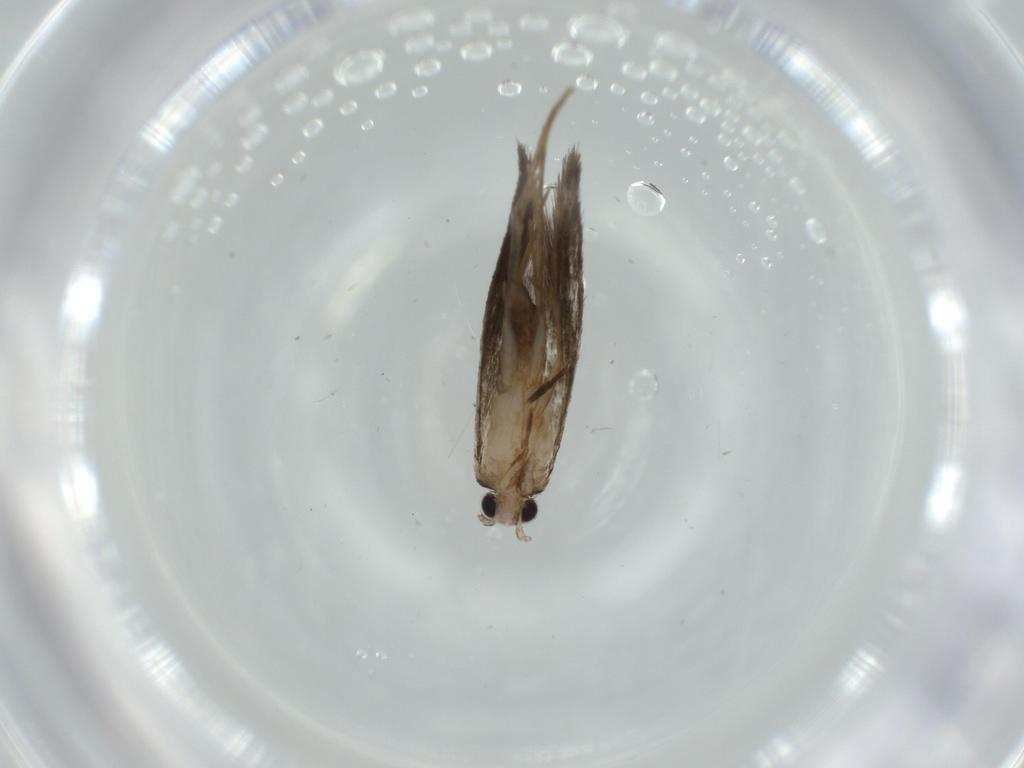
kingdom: Animalia
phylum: Arthropoda
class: Insecta
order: Lepidoptera
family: Tineidae
